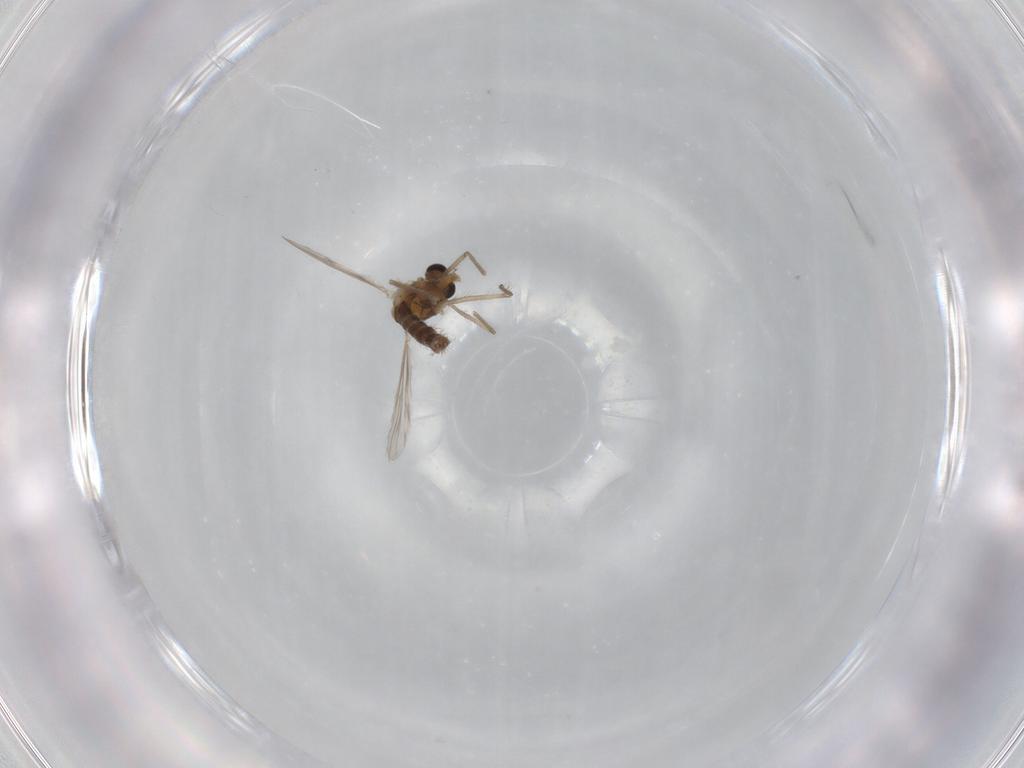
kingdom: Animalia
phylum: Arthropoda
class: Insecta
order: Diptera
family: Chironomidae
